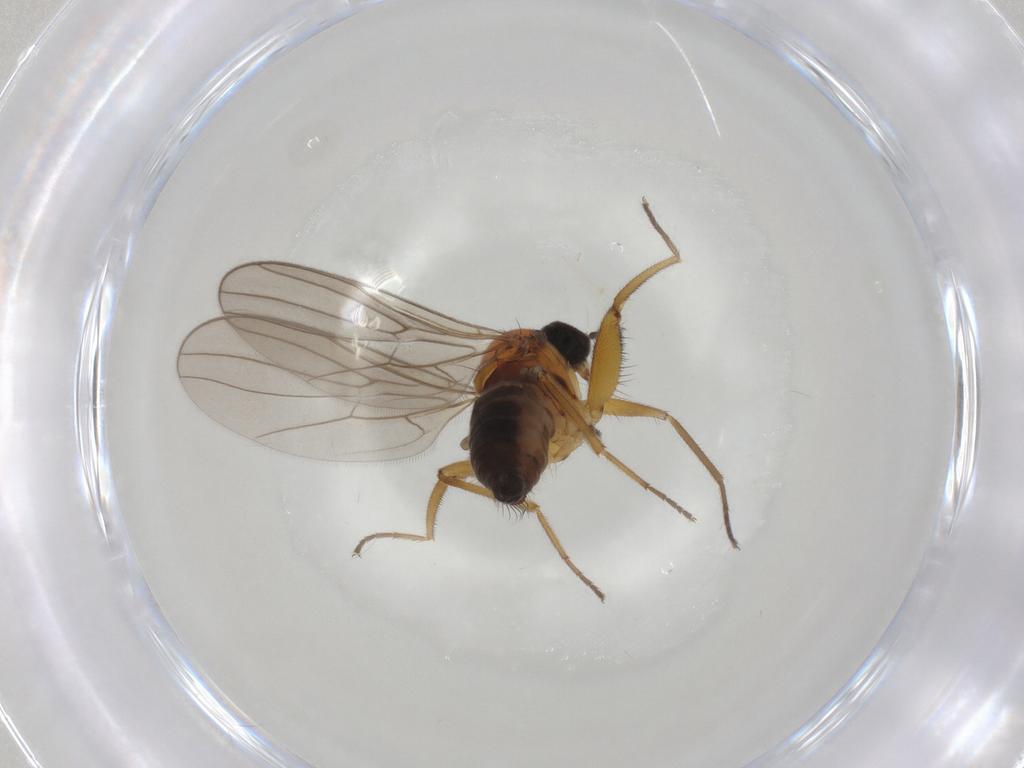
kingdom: Animalia
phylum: Arthropoda
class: Insecta
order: Diptera
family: Hybotidae
